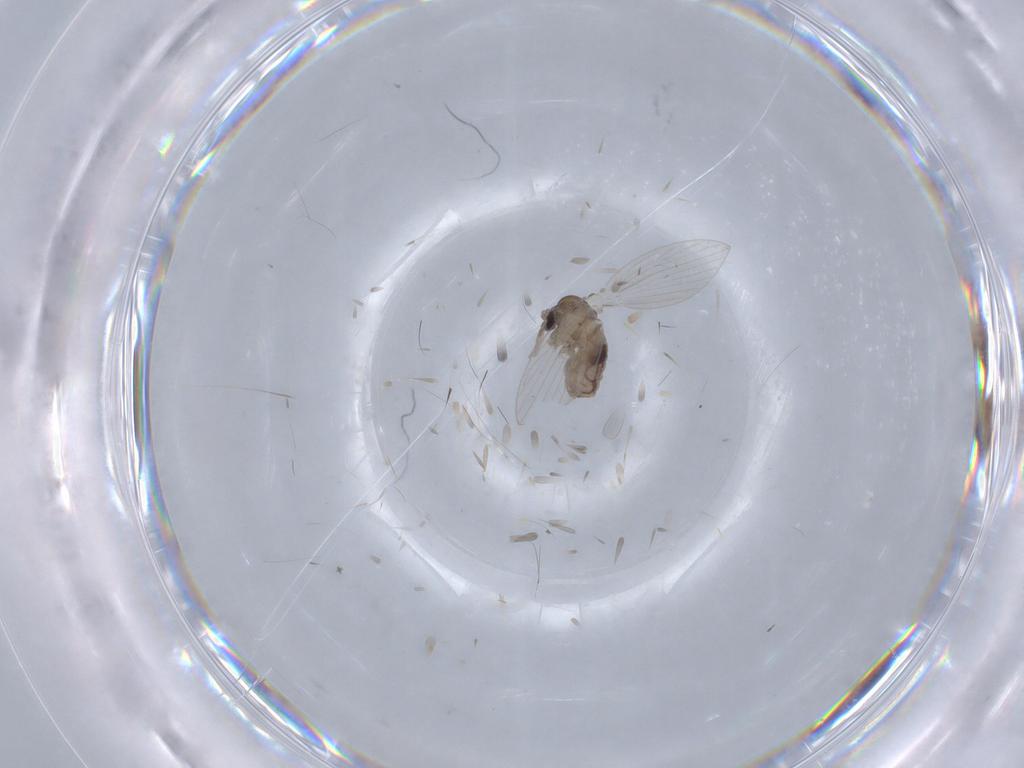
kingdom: Animalia
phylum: Arthropoda
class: Insecta
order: Diptera
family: Psychodidae
